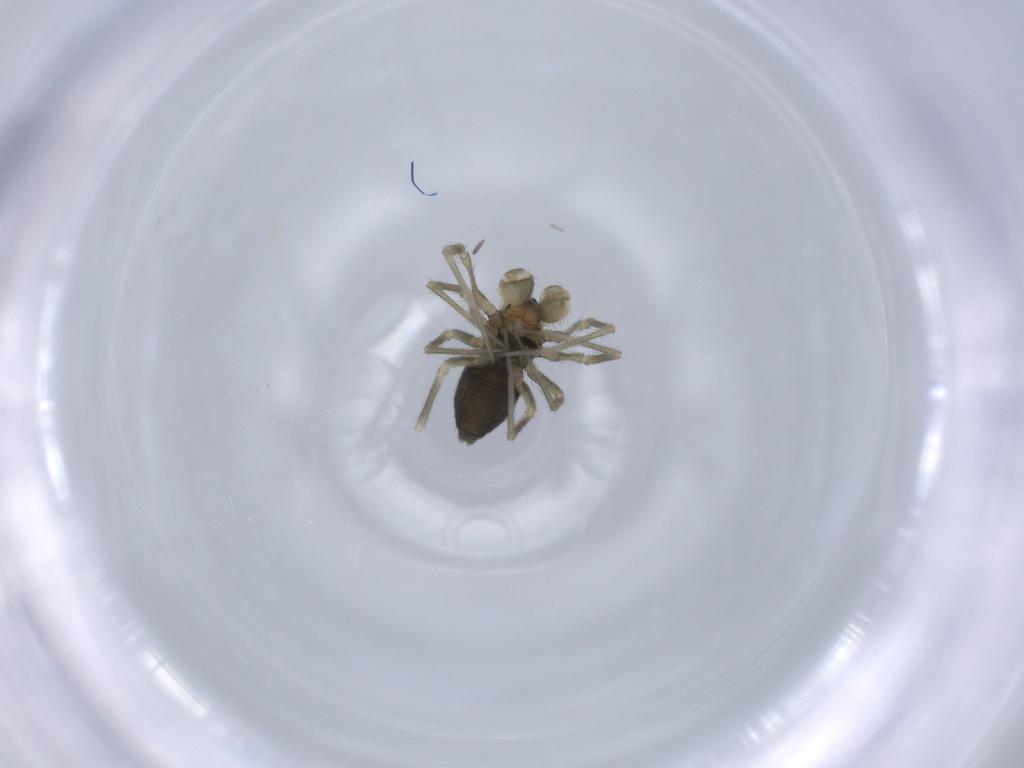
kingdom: Animalia
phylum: Arthropoda
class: Arachnida
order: Araneae
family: Linyphiidae
